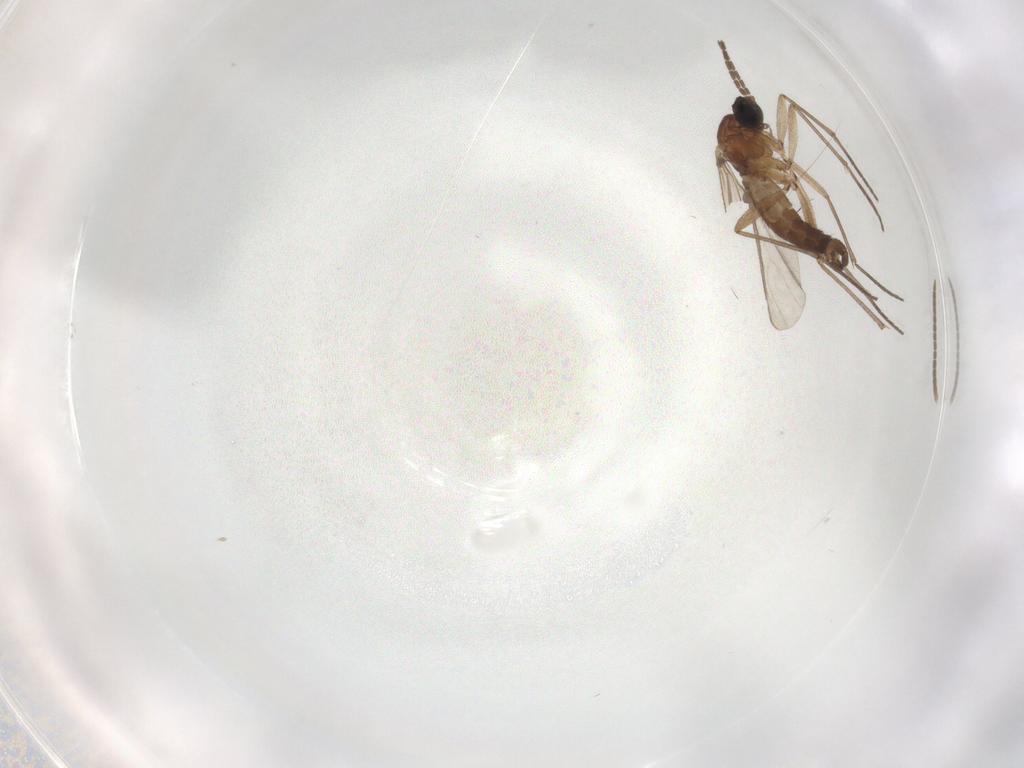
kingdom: Animalia
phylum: Arthropoda
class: Insecta
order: Diptera
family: Mycetophilidae
